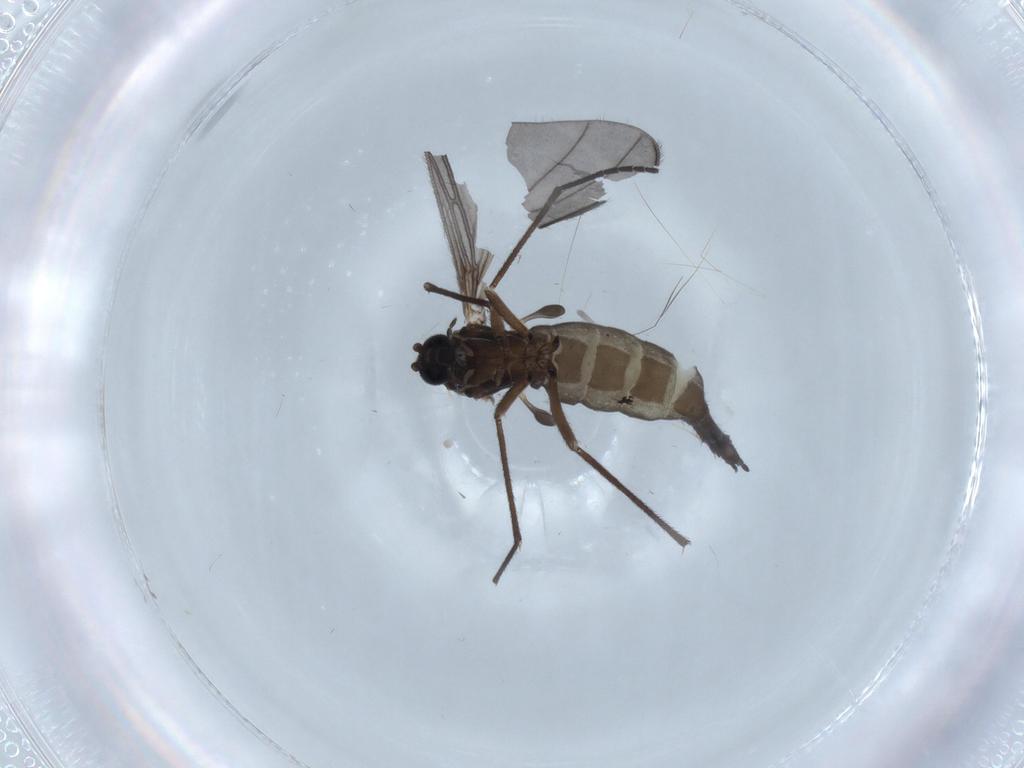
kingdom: Animalia
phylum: Arthropoda
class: Insecta
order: Diptera
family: Sciaridae
